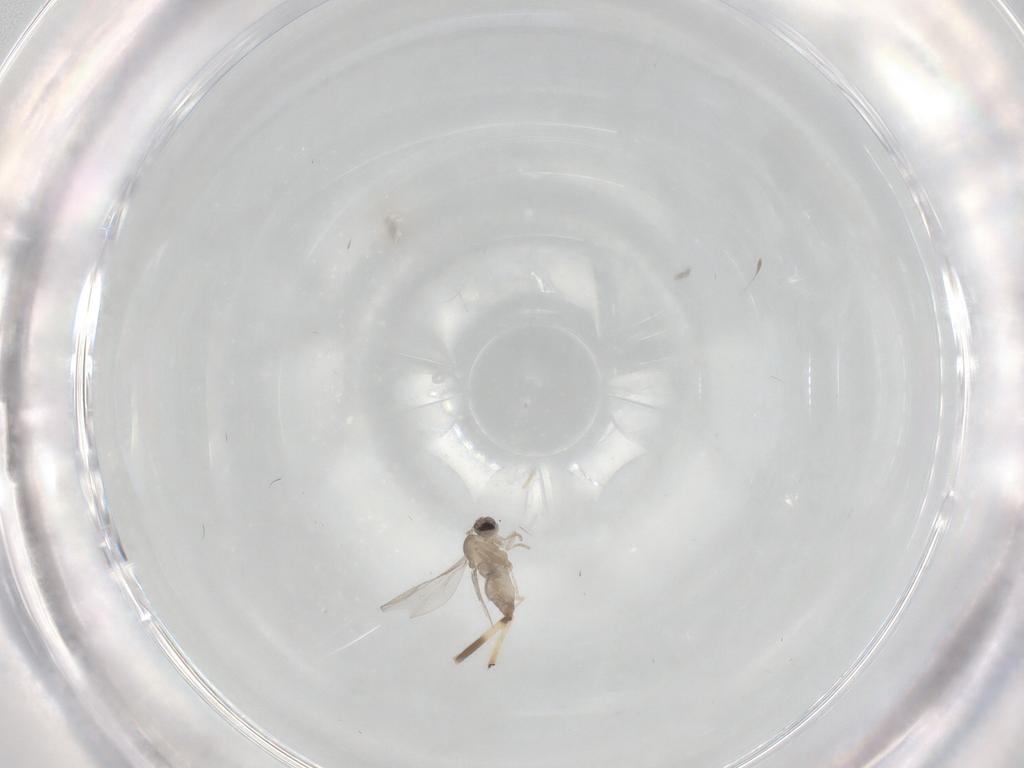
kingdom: Animalia
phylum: Arthropoda
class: Insecta
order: Diptera
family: Cecidomyiidae
